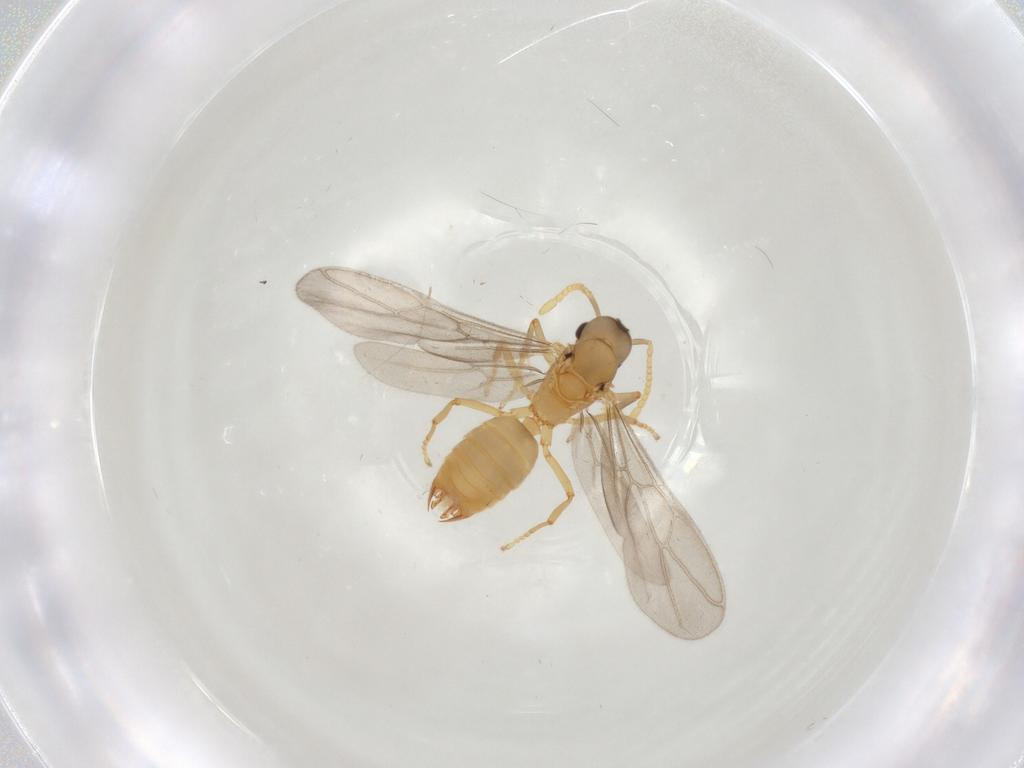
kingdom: Animalia
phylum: Arthropoda
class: Insecta
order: Hymenoptera
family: Formicidae
